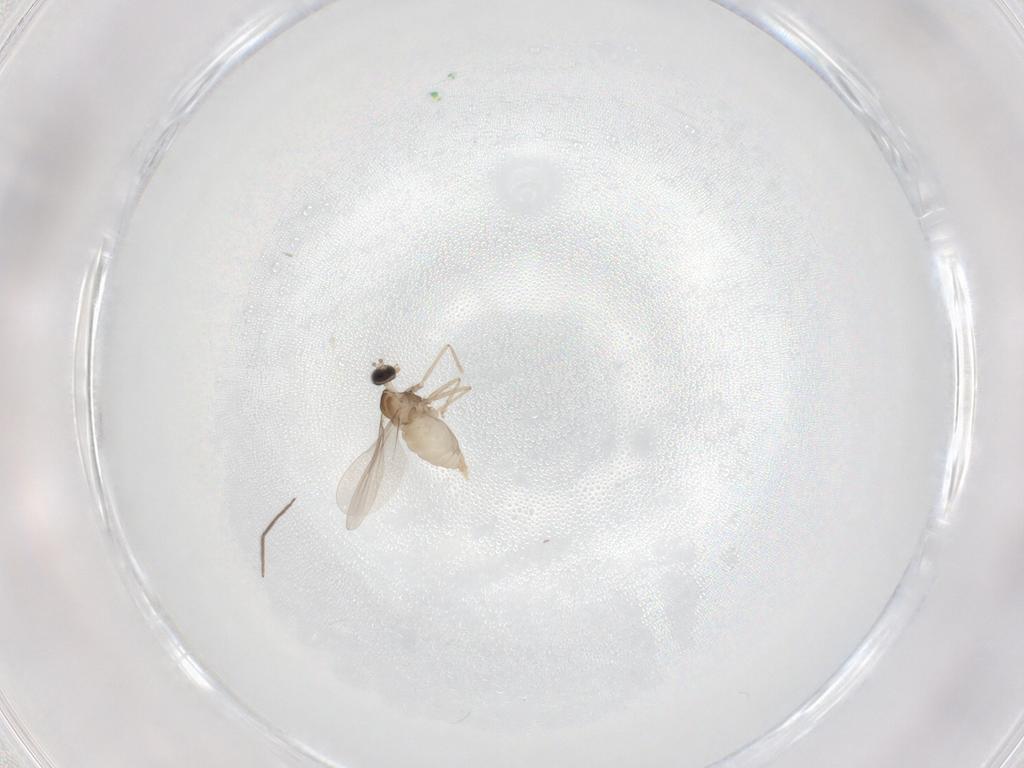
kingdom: Animalia
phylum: Arthropoda
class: Insecta
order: Diptera
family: Cecidomyiidae
